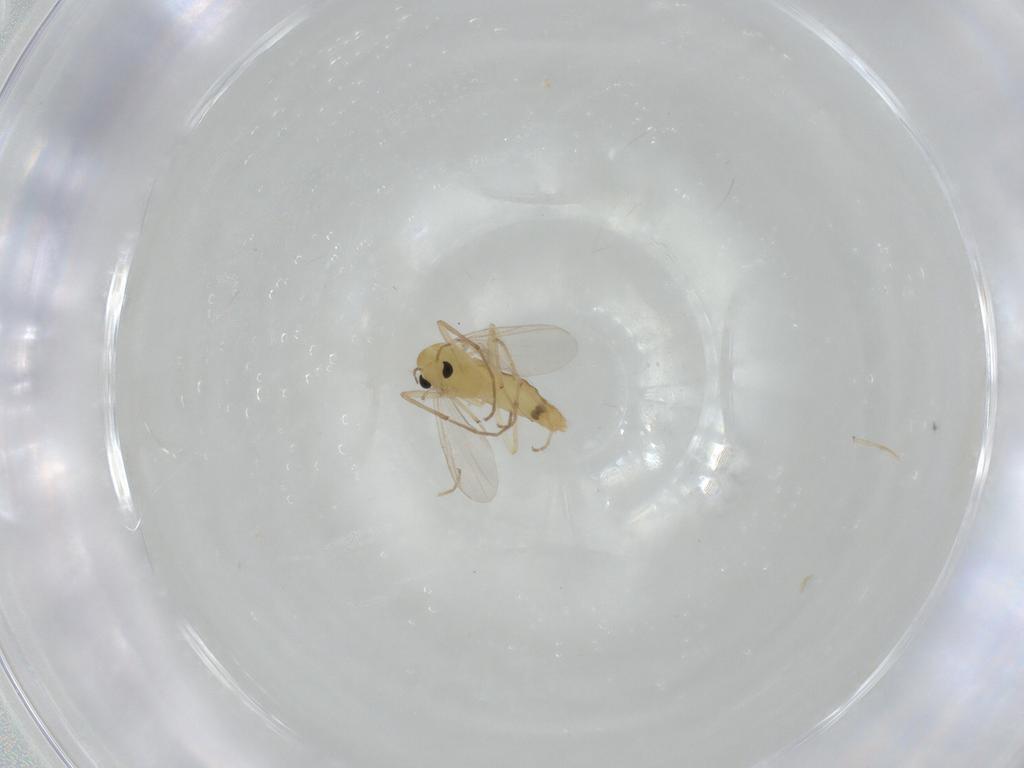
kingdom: Animalia
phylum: Arthropoda
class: Insecta
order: Diptera
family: Chironomidae
